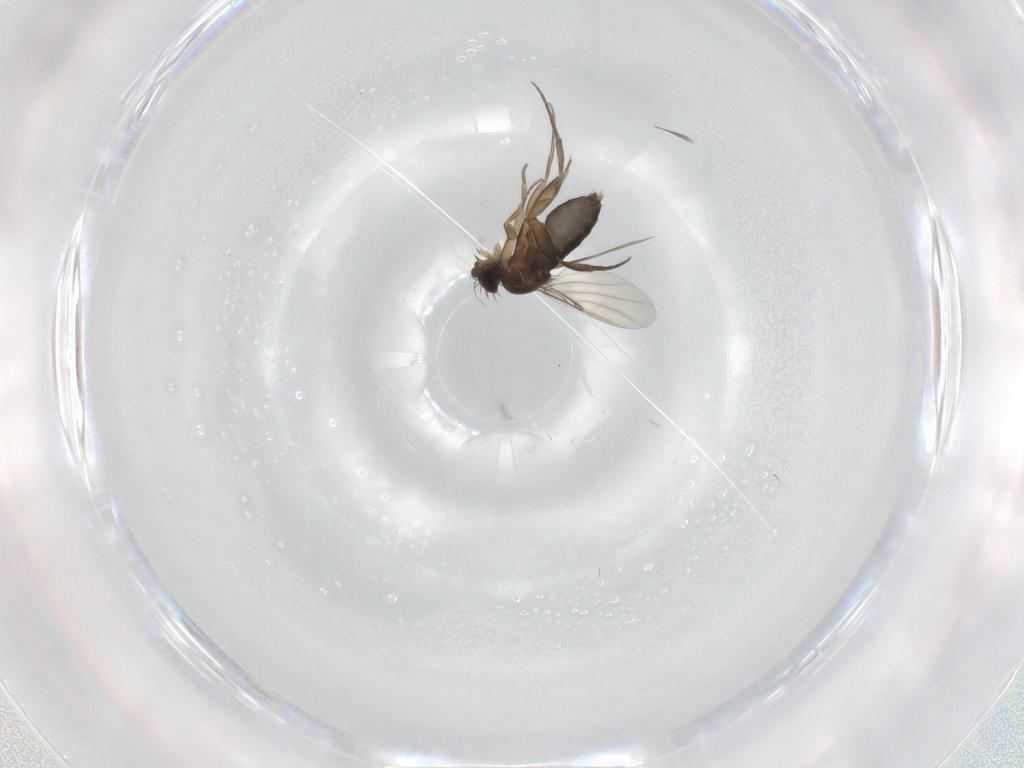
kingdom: Animalia
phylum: Arthropoda
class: Insecta
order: Diptera
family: Phoridae
